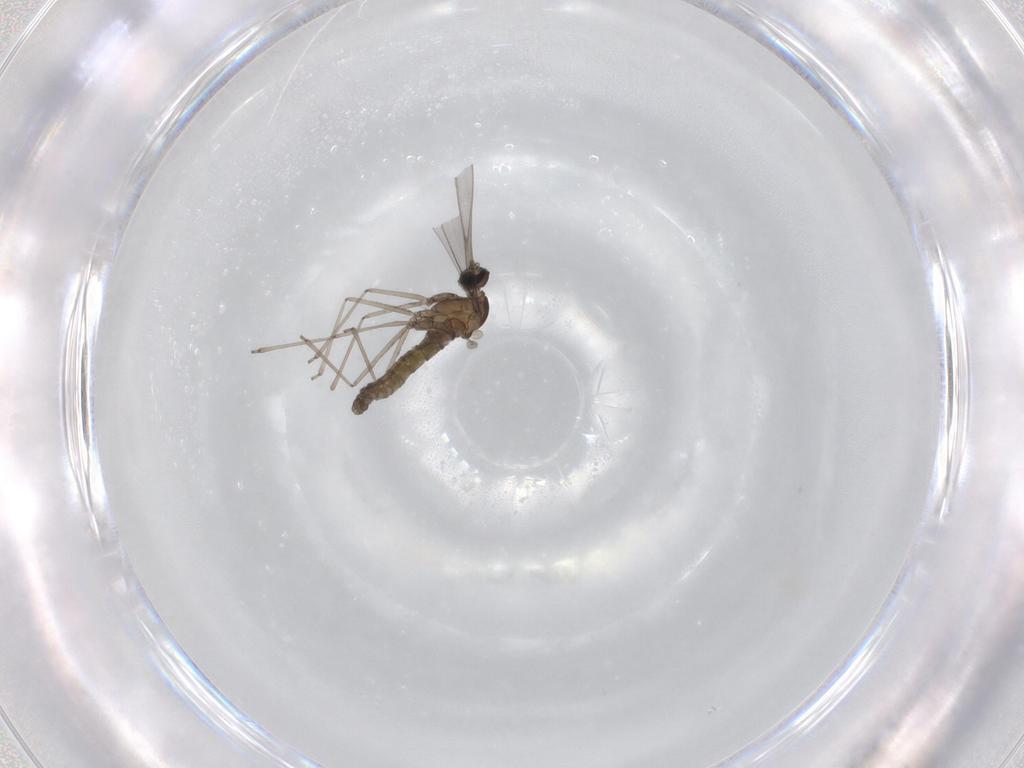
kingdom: Animalia
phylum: Arthropoda
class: Insecta
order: Diptera
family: Cecidomyiidae
